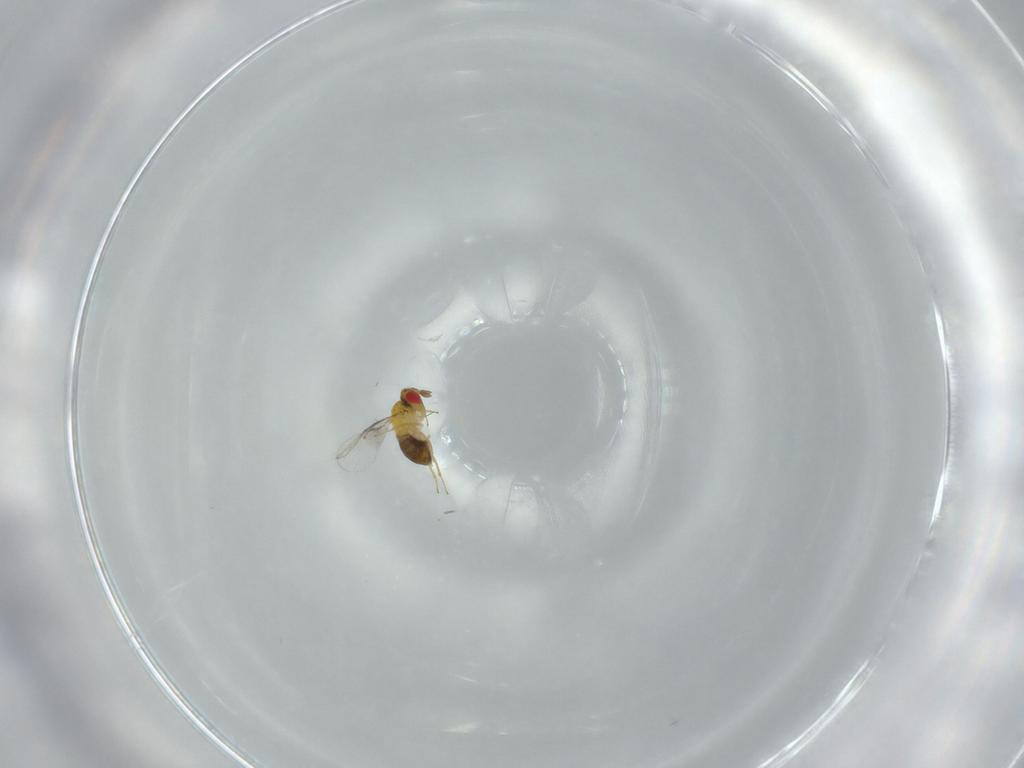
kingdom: Animalia
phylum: Arthropoda
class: Insecta
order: Hymenoptera
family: Trichogrammatidae
